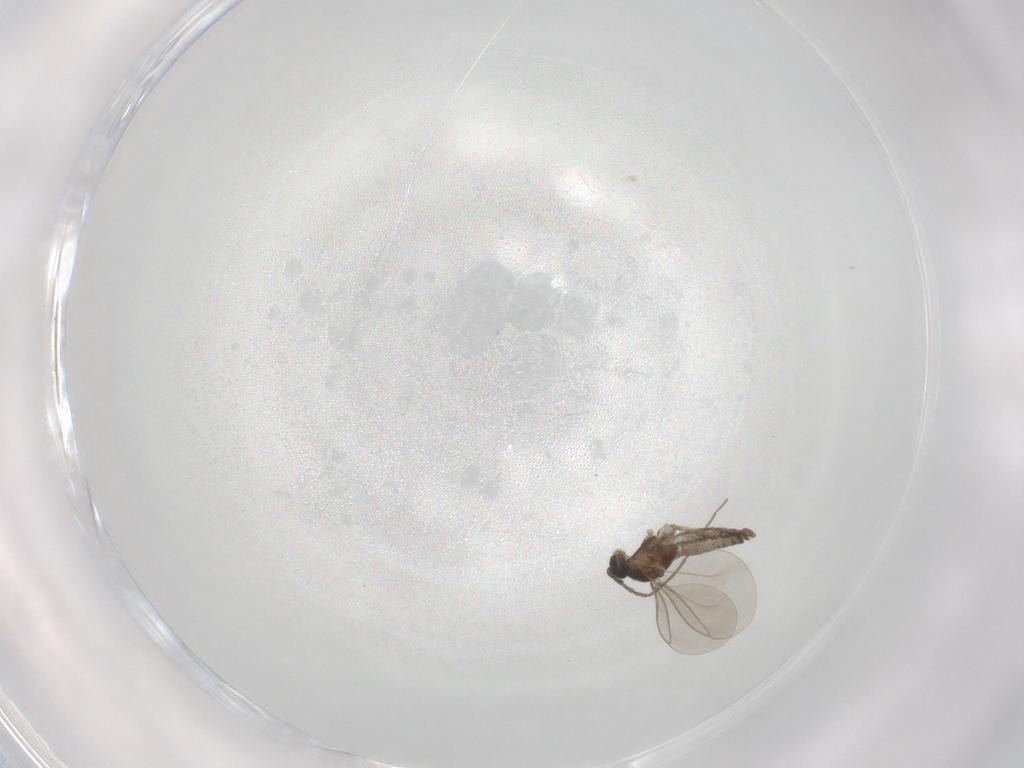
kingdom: Animalia
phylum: Arthropoda
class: Insecta
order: Diptera
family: Cecidomyiidae
